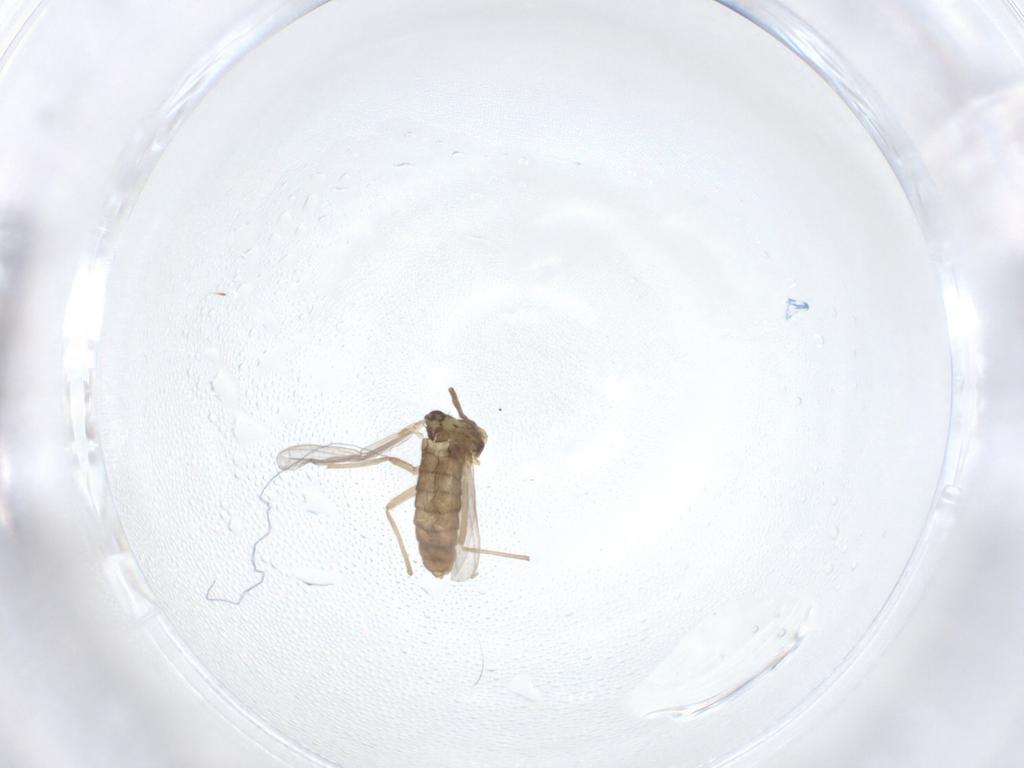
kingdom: Animalia
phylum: Arthropoda
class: Insecta
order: Diptera
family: Chironomidae
